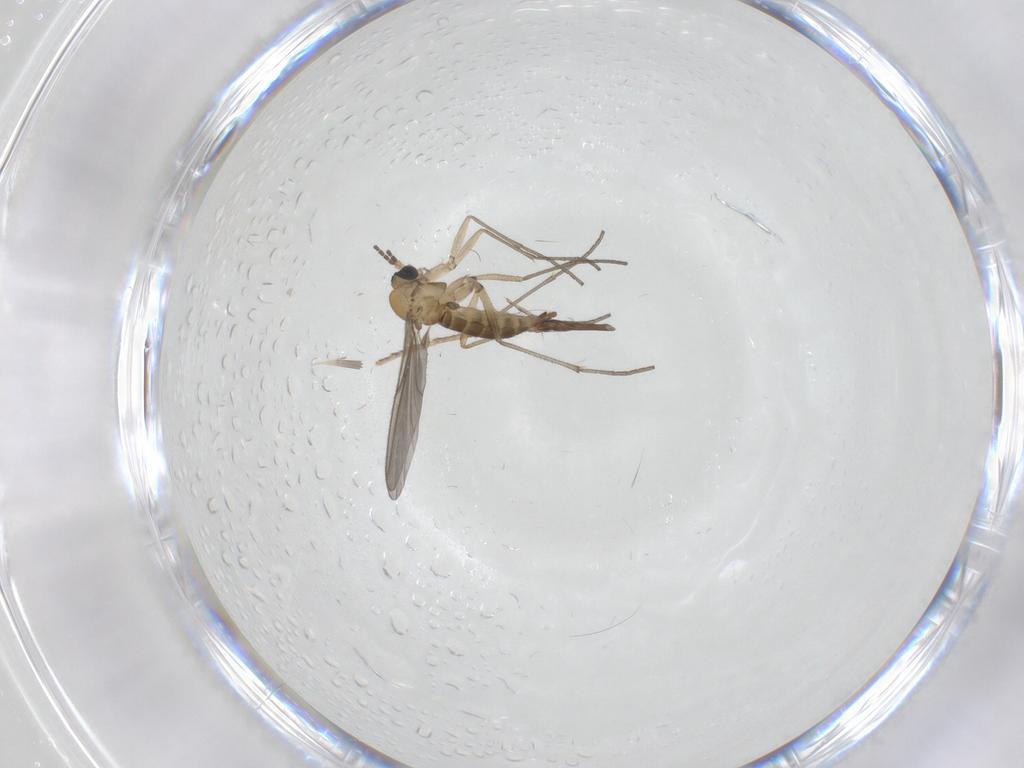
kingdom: Animalia
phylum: Arthropoda
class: Insecta
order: Diptera
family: Sciaridae
